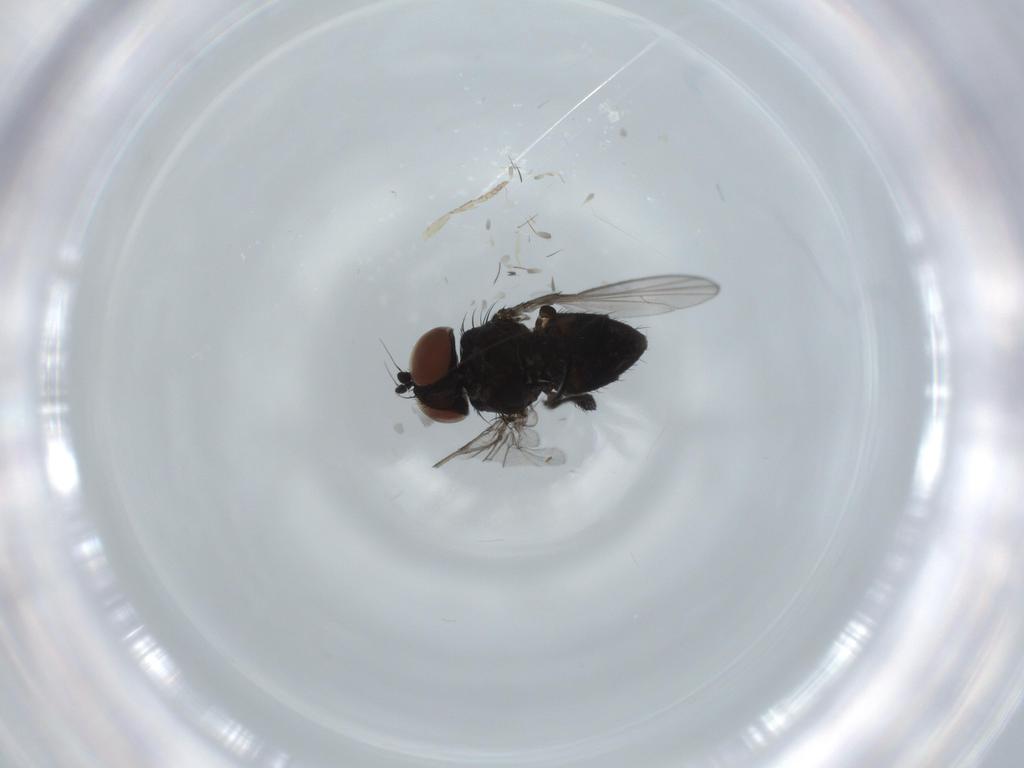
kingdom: Animalia
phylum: Arthropoda
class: Insecta
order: Diptera
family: Milichiidae
